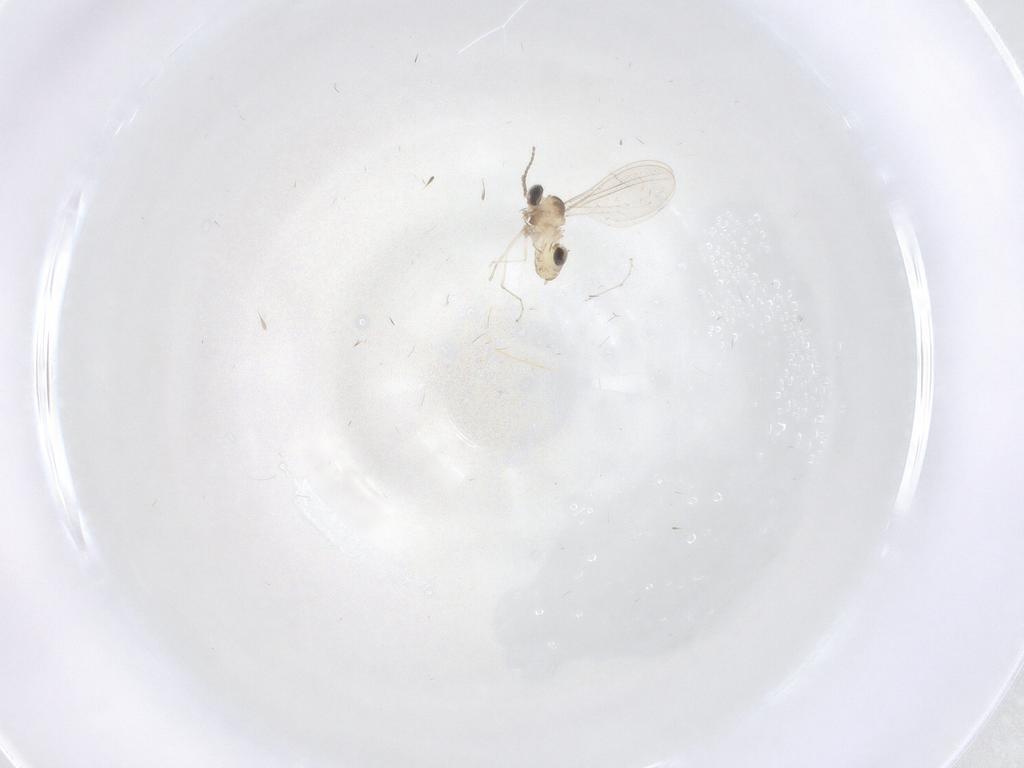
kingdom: Animalia
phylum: Arthropoda
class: Insecta
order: Diptera
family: Cecidomyiidae
